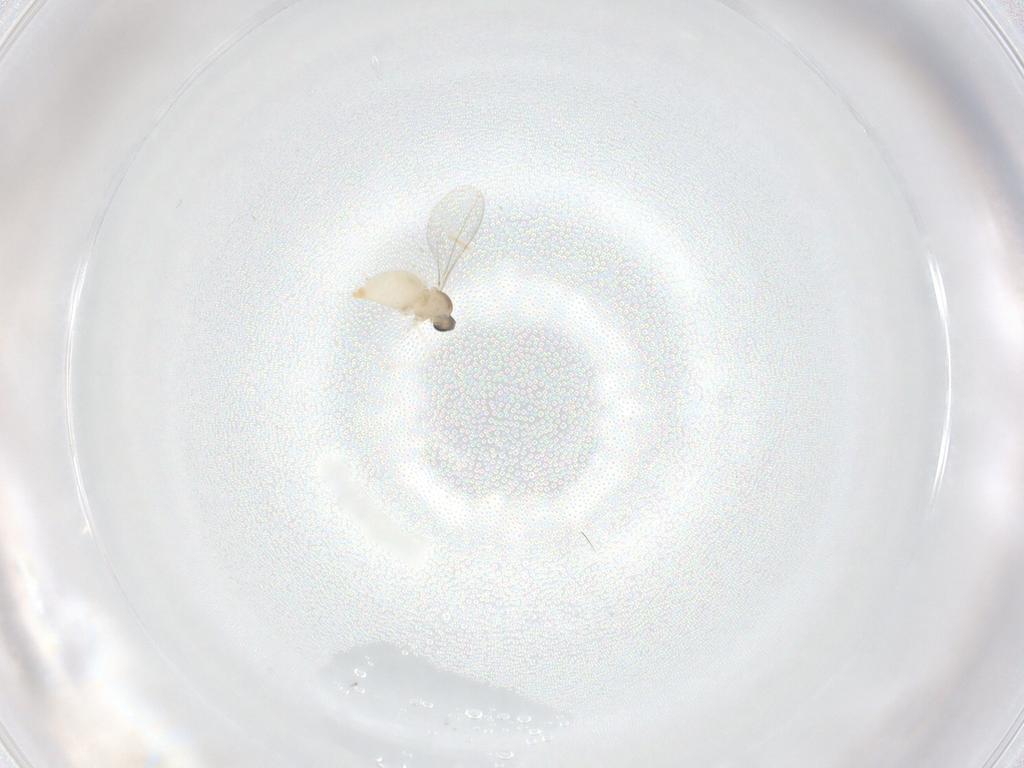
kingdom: Animalia
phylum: Arthropoda
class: Insecta
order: Diptera
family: Cecidomyiidae
